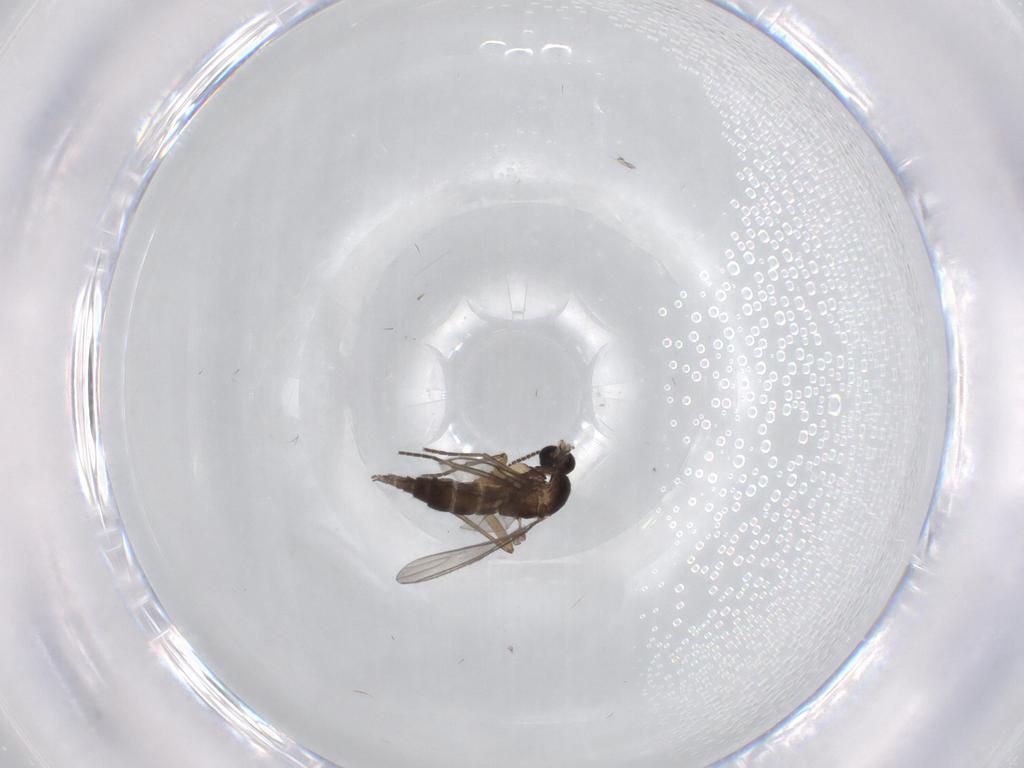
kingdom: Animalia
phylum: Arthropoda
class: Insecta
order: Diptera
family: Sciaridae
